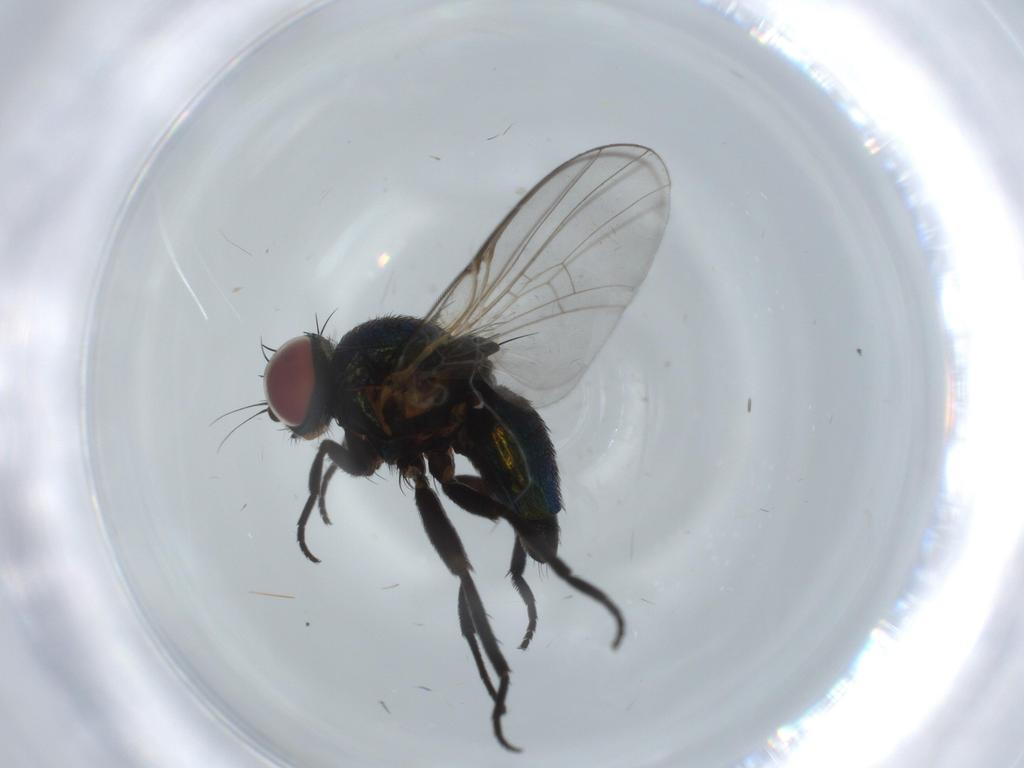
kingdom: Animalia
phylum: Arthropoda
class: Insecta
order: Diptera
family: Agromyzidae
